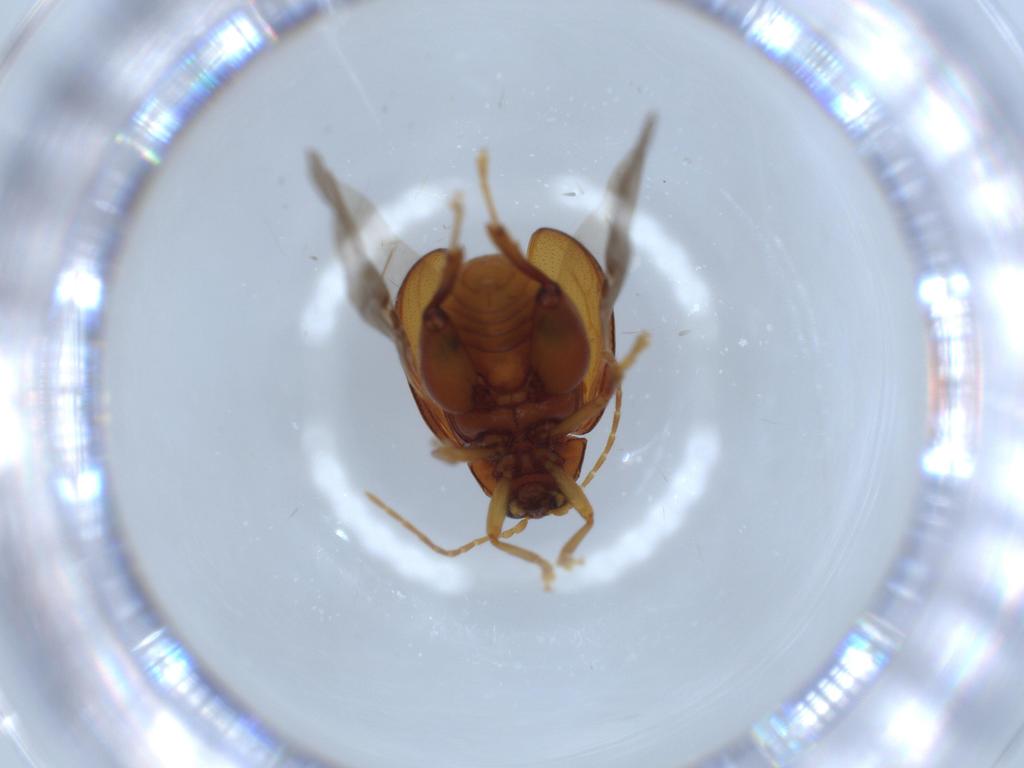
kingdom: Animalia
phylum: Arthropoda
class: Insecta
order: Coleoptera
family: Chrysomelidae
